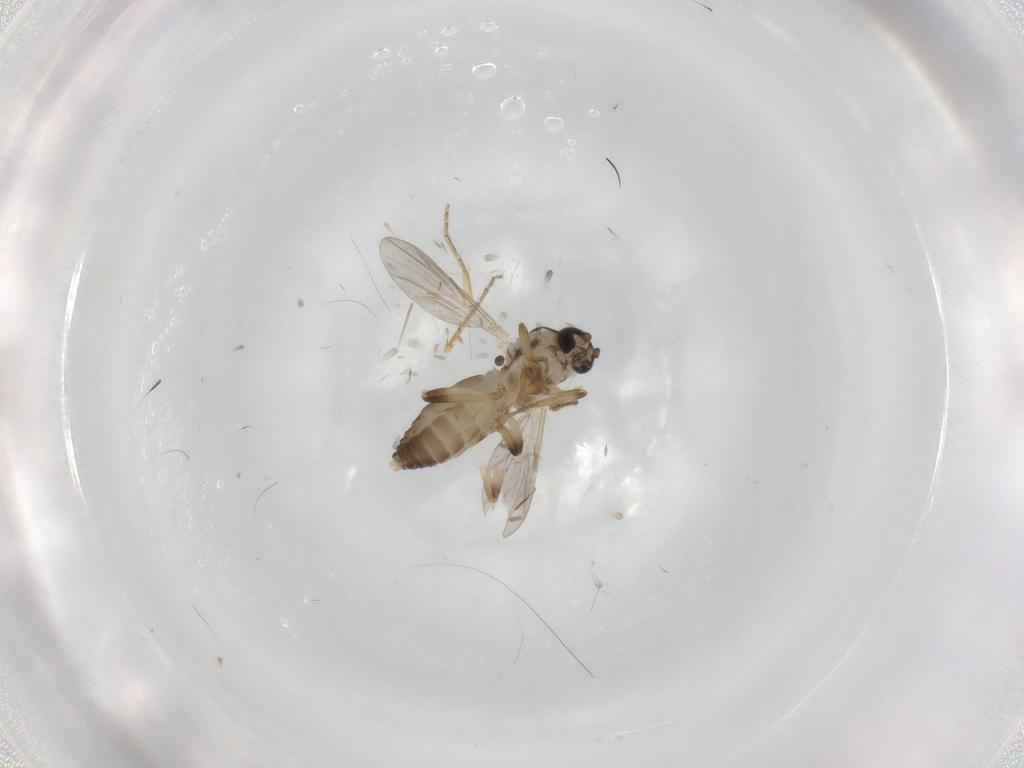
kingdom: Animalia
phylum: Arthropoda
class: Insecta
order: Diptera
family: Ceratopogonidae
